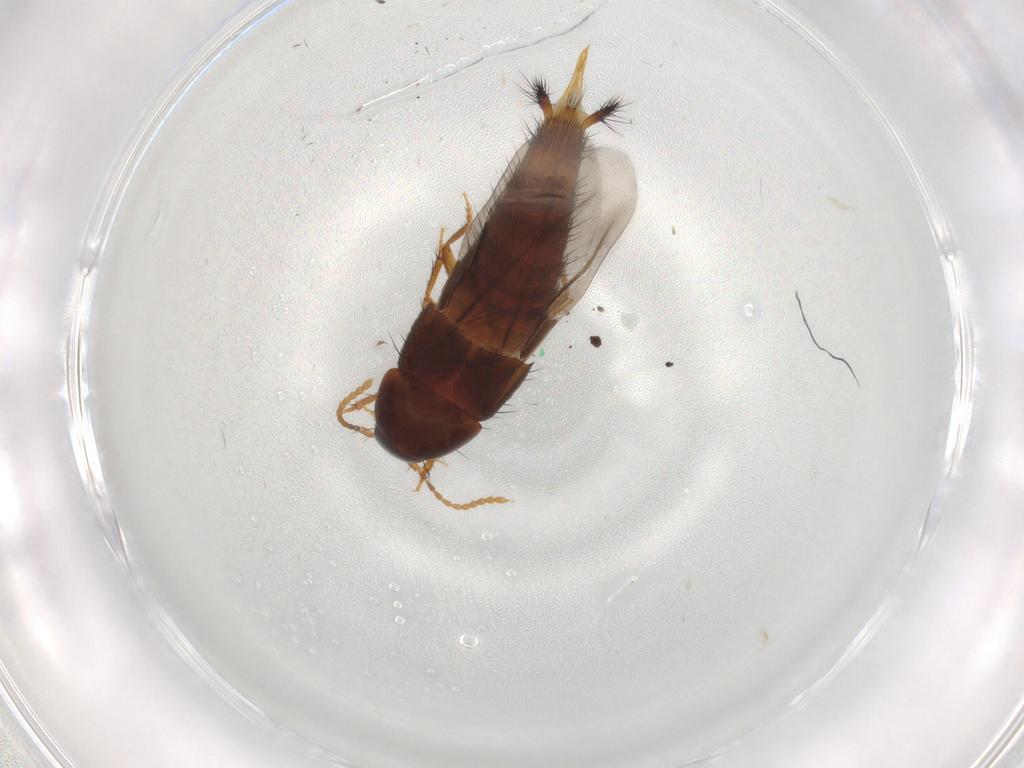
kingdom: Animalia
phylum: Arthropoda
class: Insecta
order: Coleoptera
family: Staphylinidae
